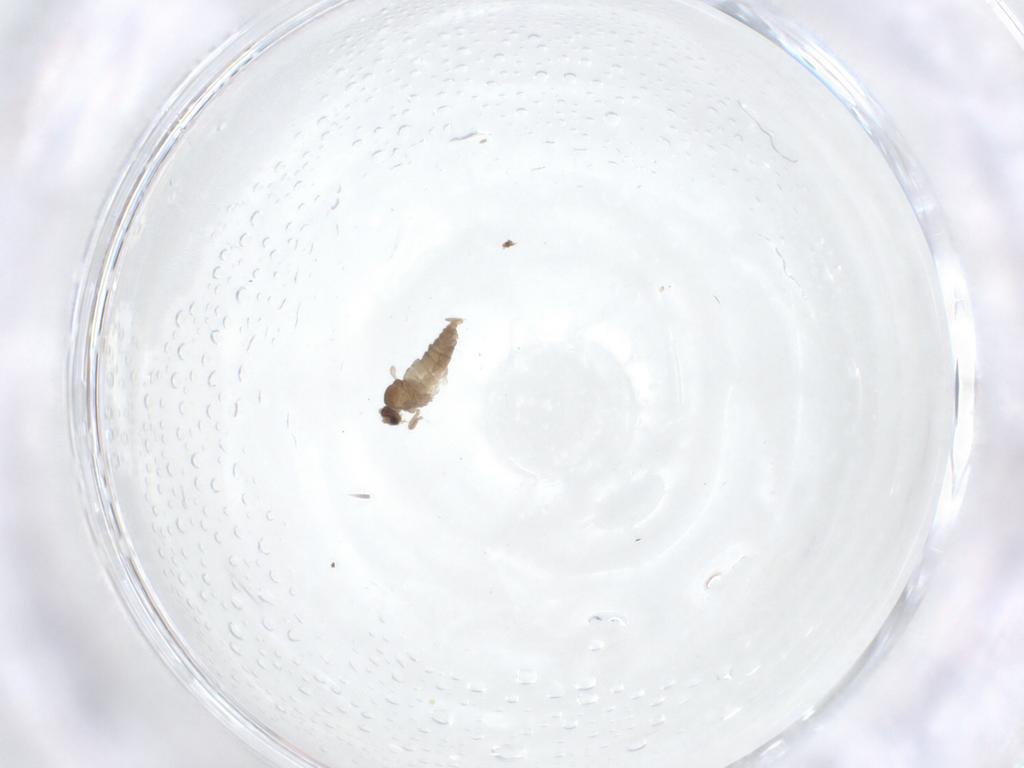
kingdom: Animalia
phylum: Arthropoda
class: Insecta
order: Diptera
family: Cecidomyiidae
